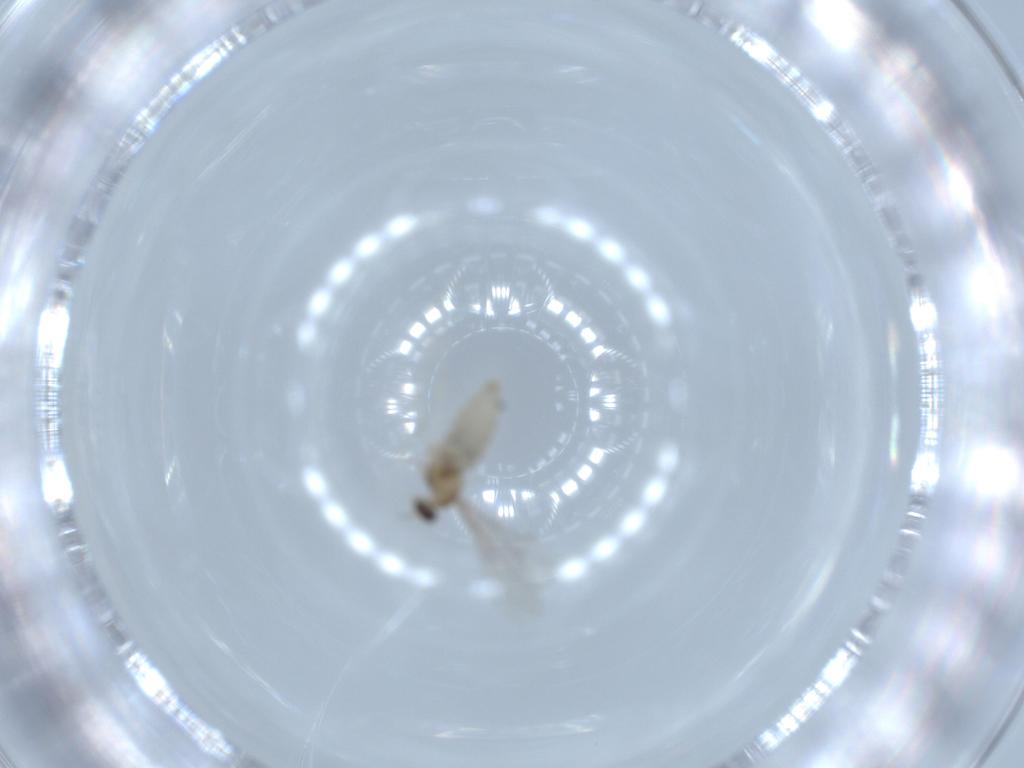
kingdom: Animalia
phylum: Arthropoda
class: Insecta
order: Diptera
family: Cecidomyiidae
